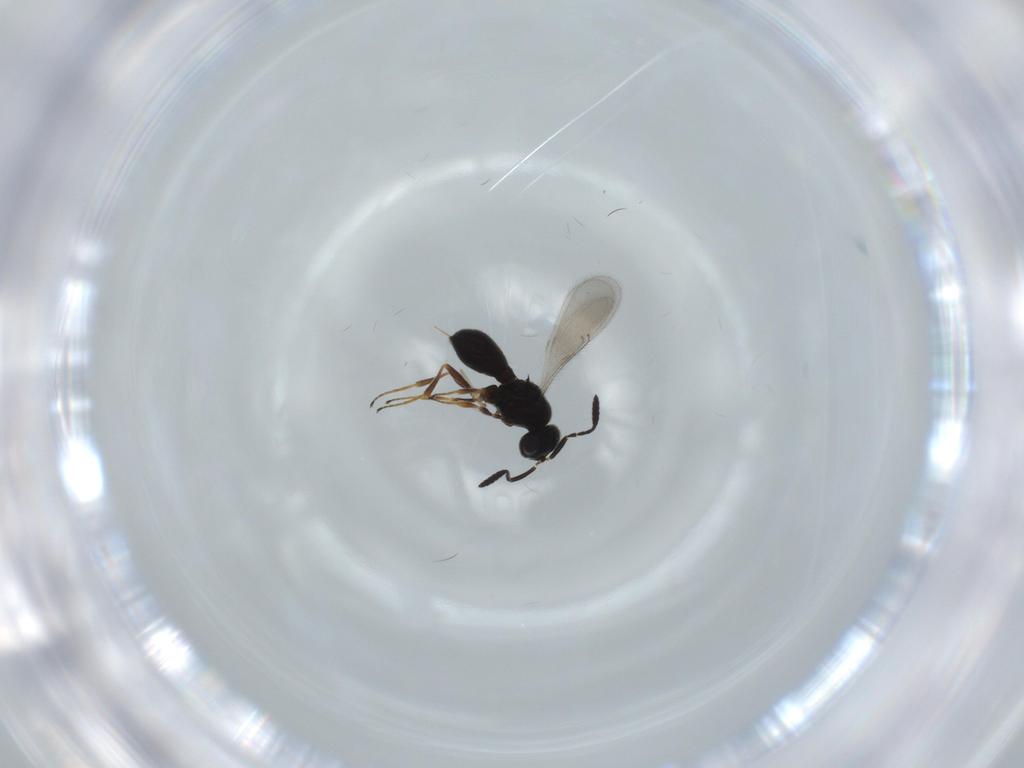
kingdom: Animalia
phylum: Arthropoda
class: Insecta
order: Hymenoptera
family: Scelionidae
